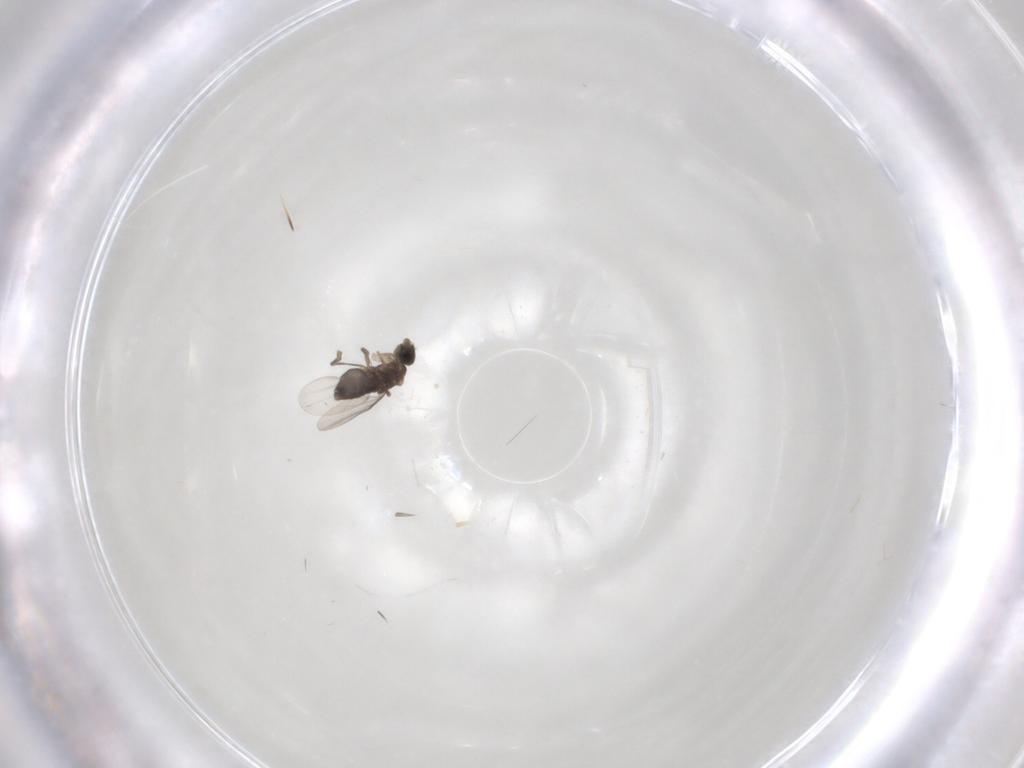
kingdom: Animalia
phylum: Arthropoda
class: Insecta
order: Diptera
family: Phoridae
